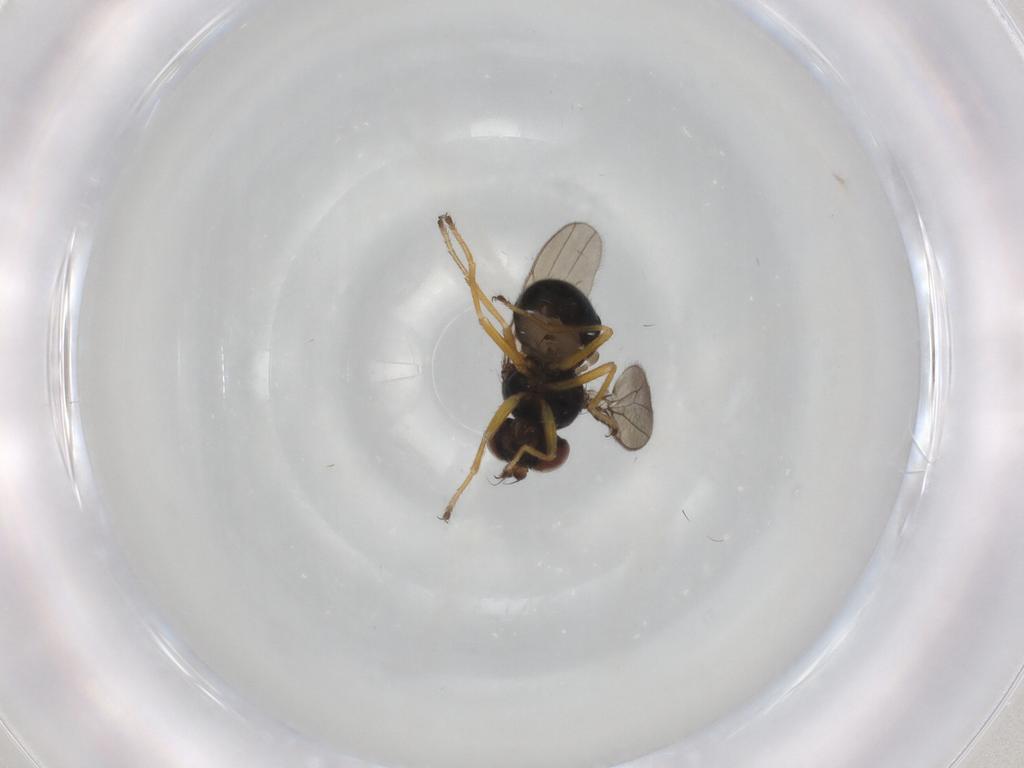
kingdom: Animalia
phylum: Arthropoda
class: Insecta
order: Diptera
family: Ephydridae
